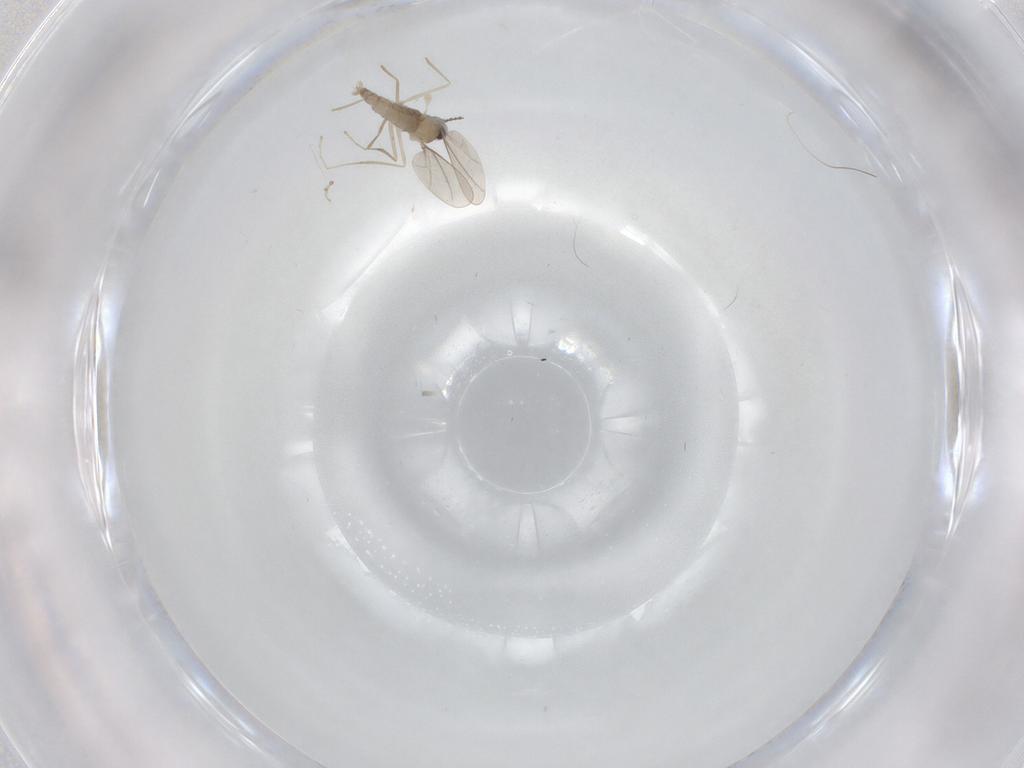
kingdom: Animalia
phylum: Arthropoda
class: Insecta
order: Diptera
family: Cecidomyiidae
